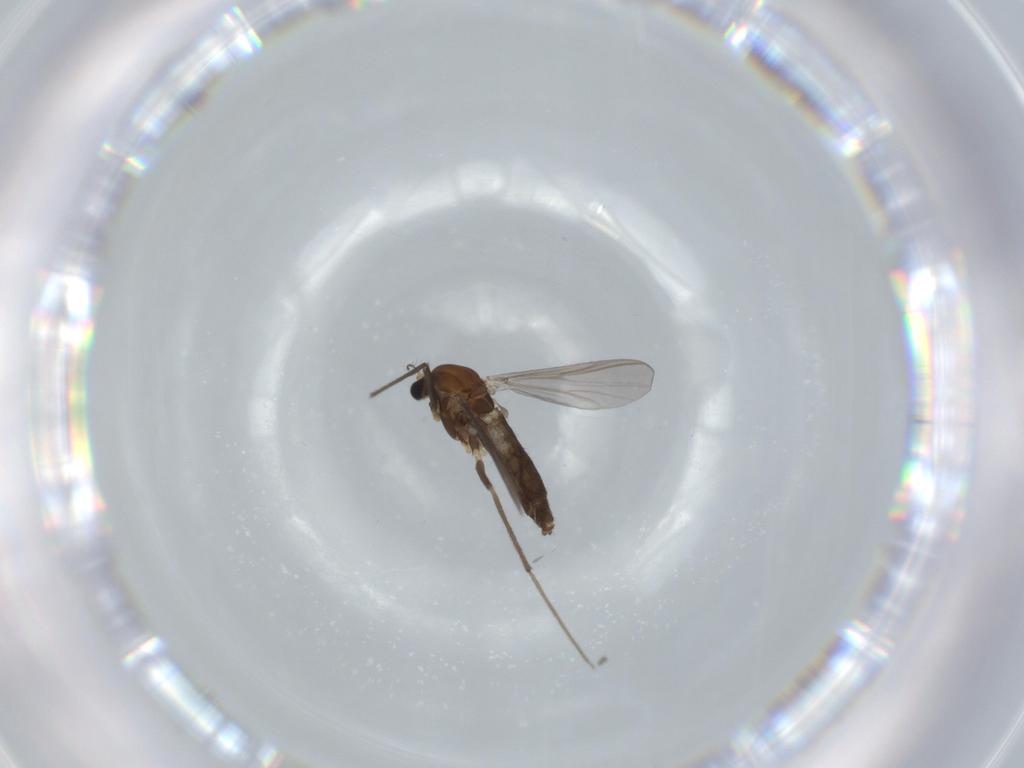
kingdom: Animalia
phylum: Arthropoda
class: Insecta
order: Diptera
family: Chironomidae
